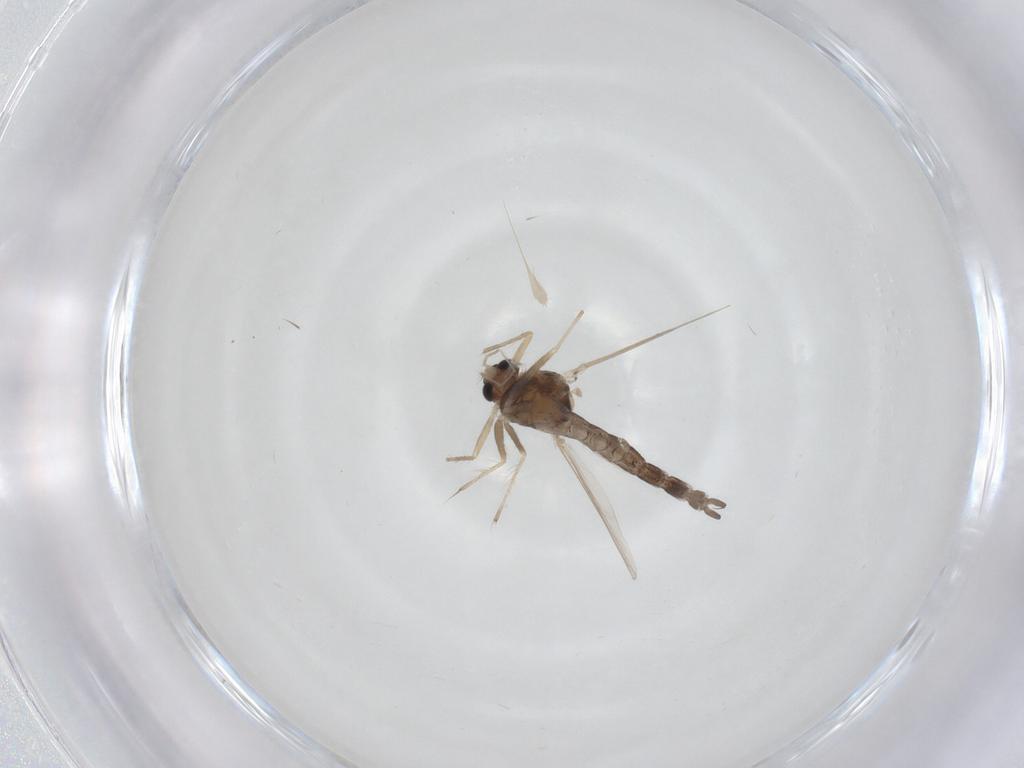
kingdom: Animalia
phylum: Arthropoda
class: Insecta
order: Diptera
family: Chironomidae
